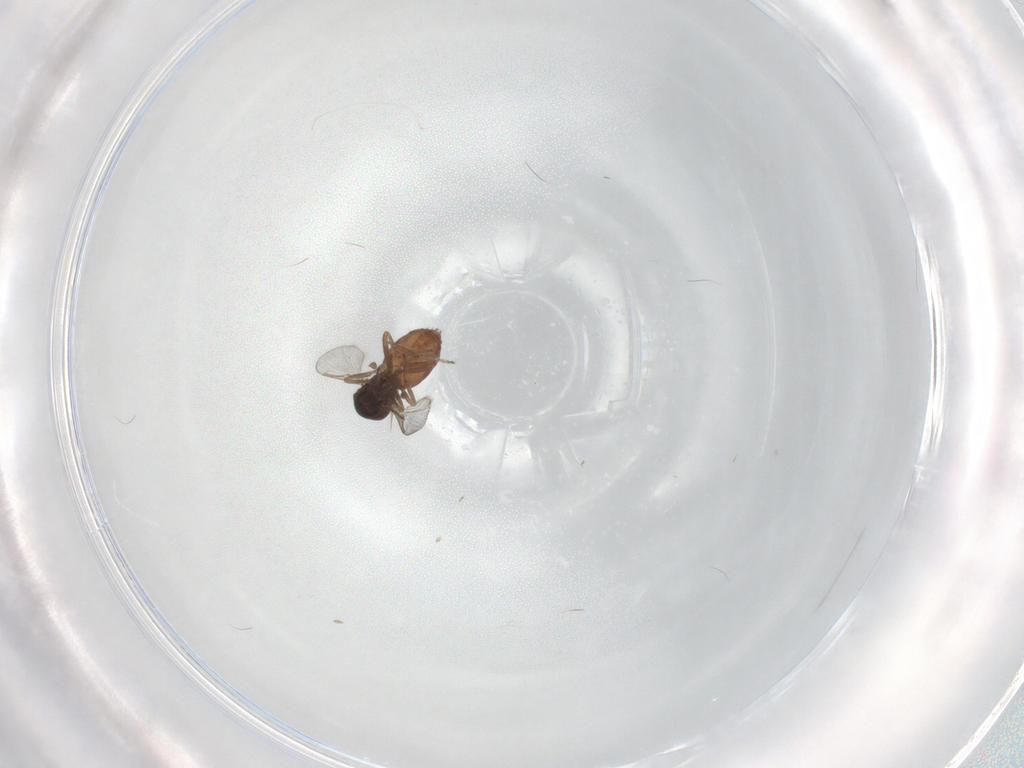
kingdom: Animalia
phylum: Arthropoda
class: Insecta
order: Diptera
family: Ceratopogonidae
